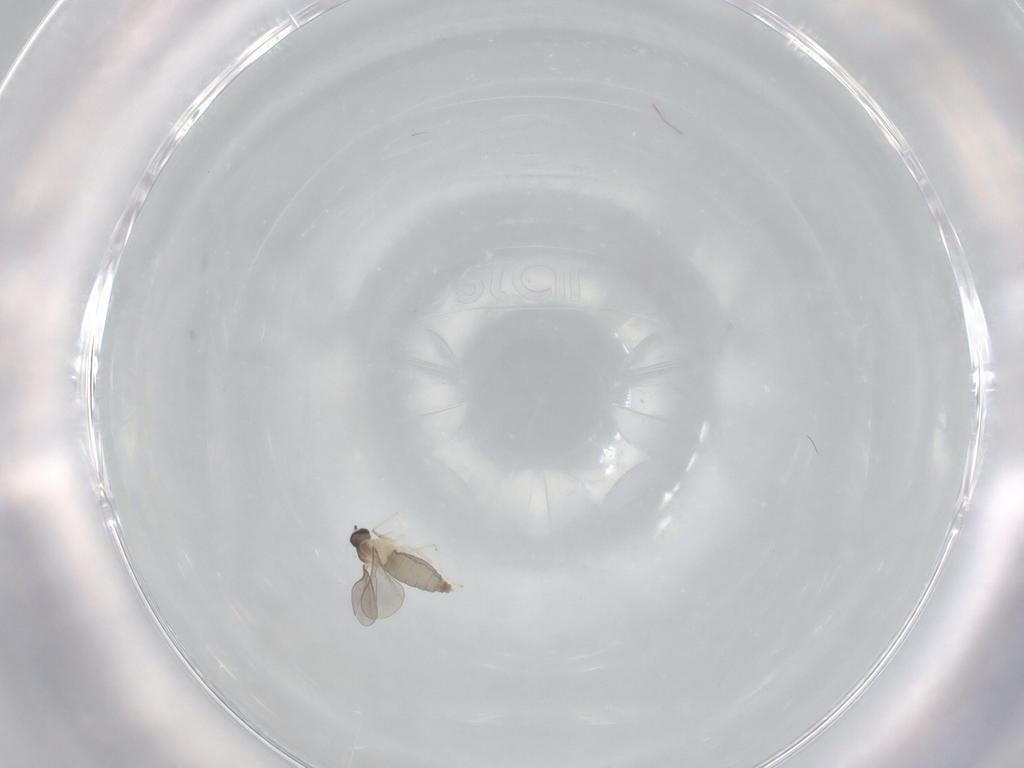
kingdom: Animalia
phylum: Arthropoda
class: Insecta
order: Diptera
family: Cecidomyiidae
